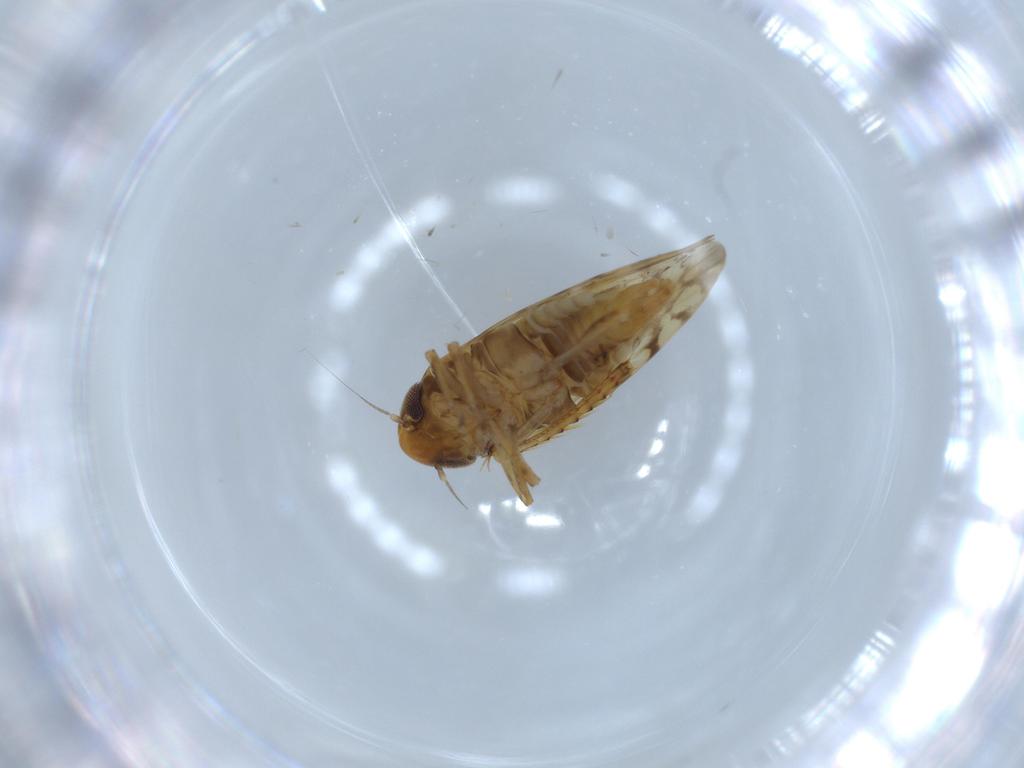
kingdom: Animalia
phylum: Arthropoda
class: Insecta
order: Hemiptera
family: Cicadellidae
